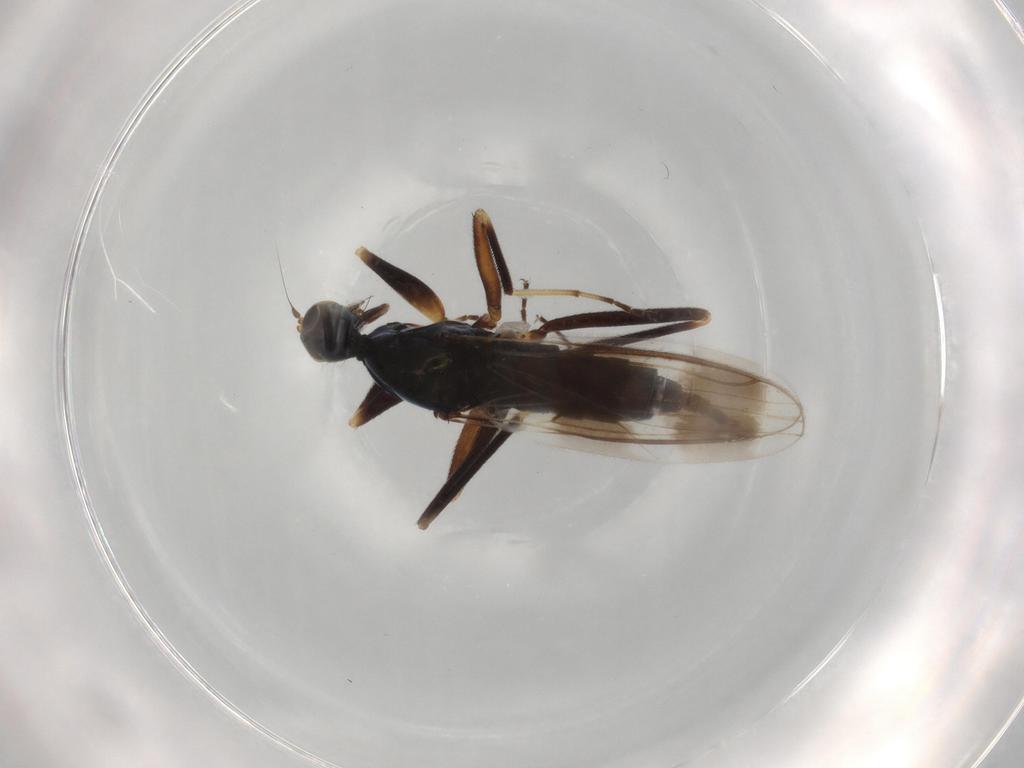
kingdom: Animalia
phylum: Arthropoda
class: Insecta
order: Diptera
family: Hybotidae
